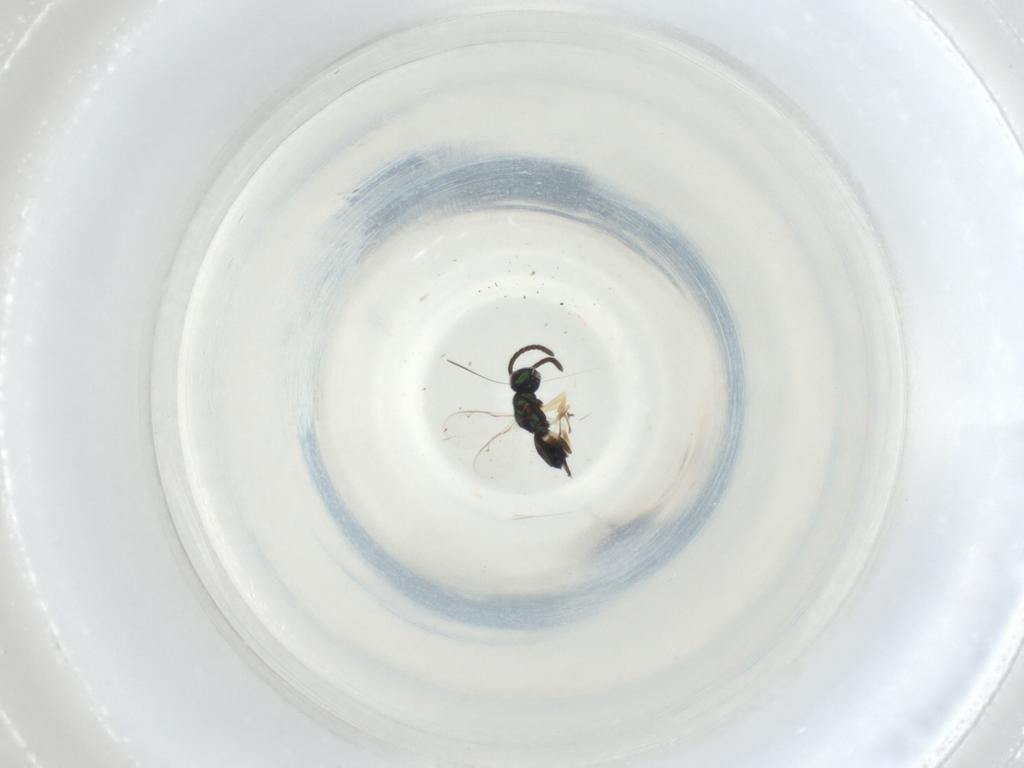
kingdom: Animalia
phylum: Arthropoda
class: Insecta
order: Hymenoptera
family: Eupelmidae
